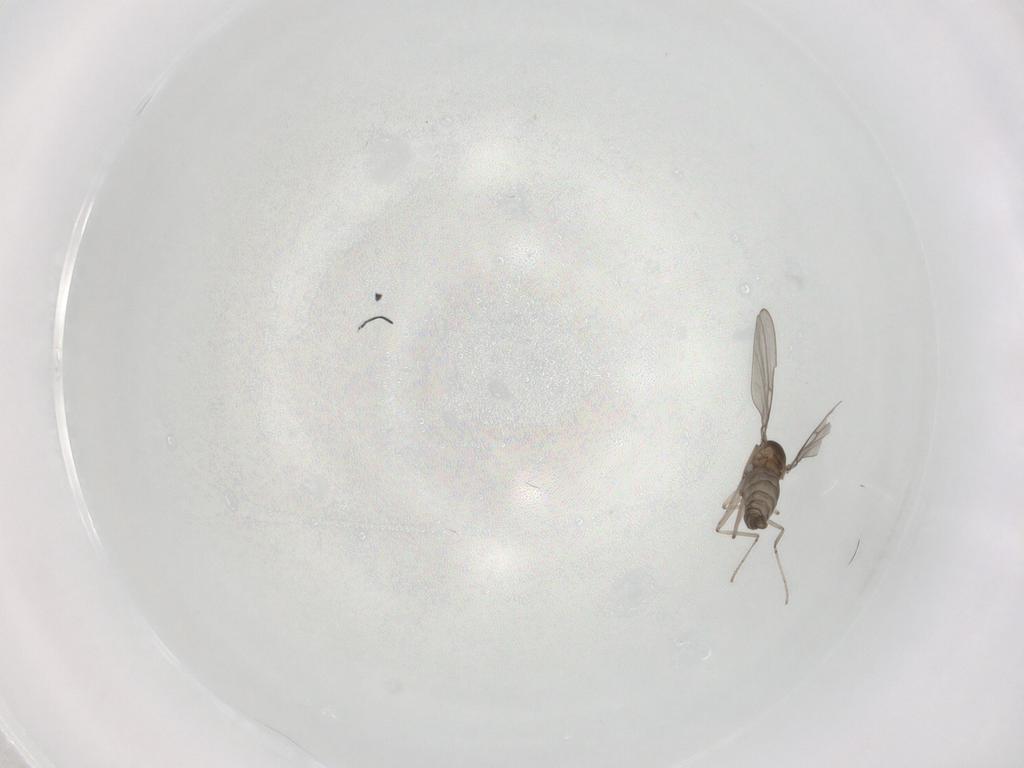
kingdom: Animalia
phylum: Arthropoda
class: Insecta
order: Diptera
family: Cecidomyiidae
